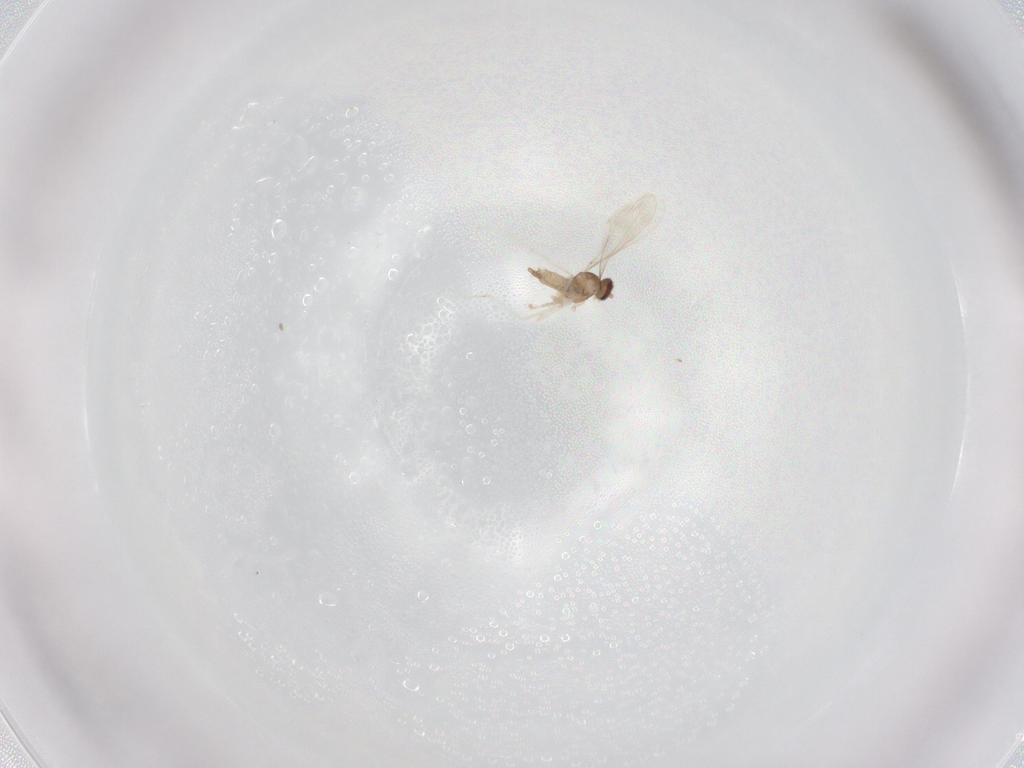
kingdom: Animalia
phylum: Arthropoda
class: Insecta
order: Diptera
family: Cecidomyiidae
